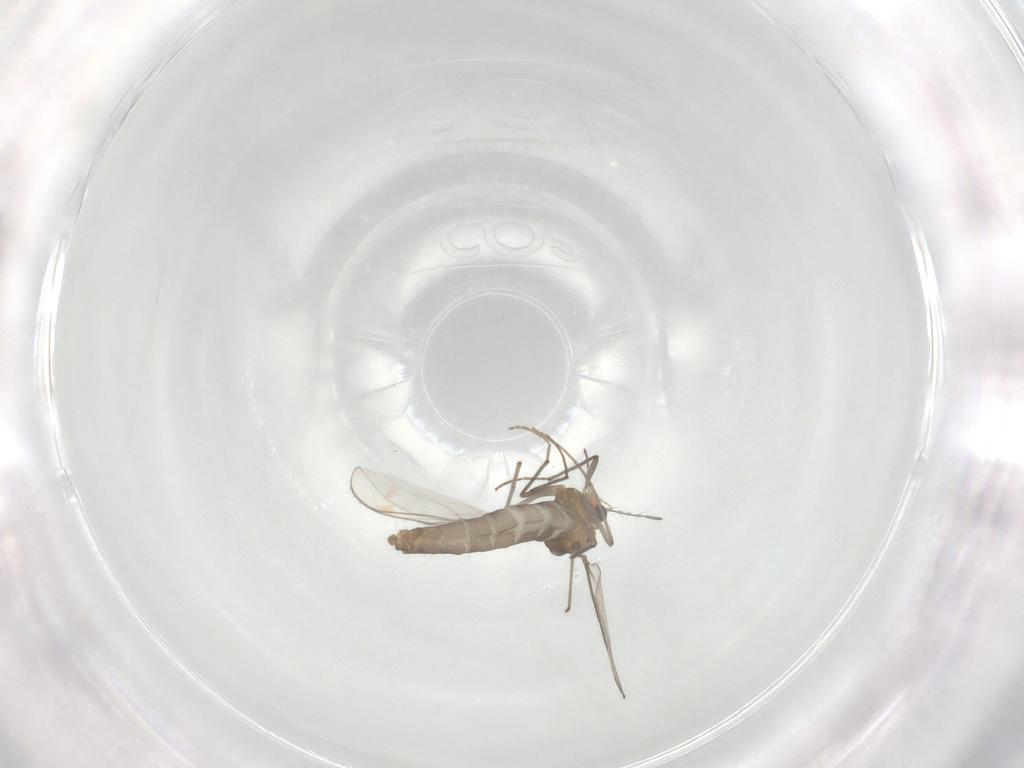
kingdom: Animalia
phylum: Arthropoda
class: Insecta
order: Diptera
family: Chironomidae
